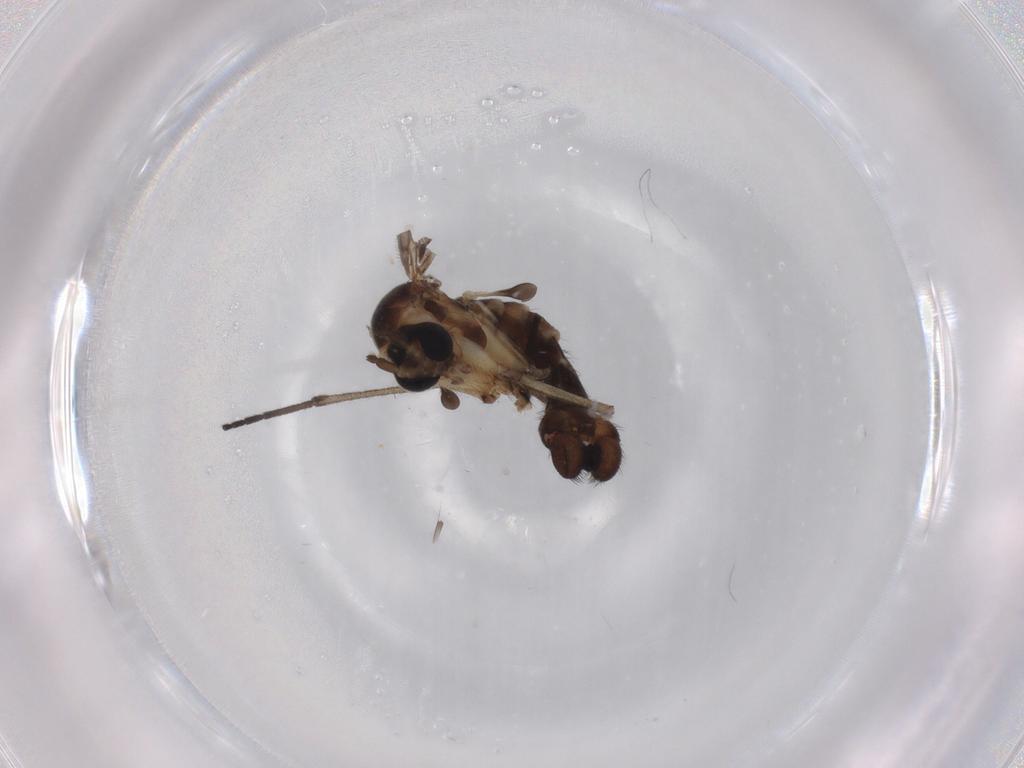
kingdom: Animalia
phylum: Arthropoda
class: Insecta
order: Diptera
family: Sciaridae
